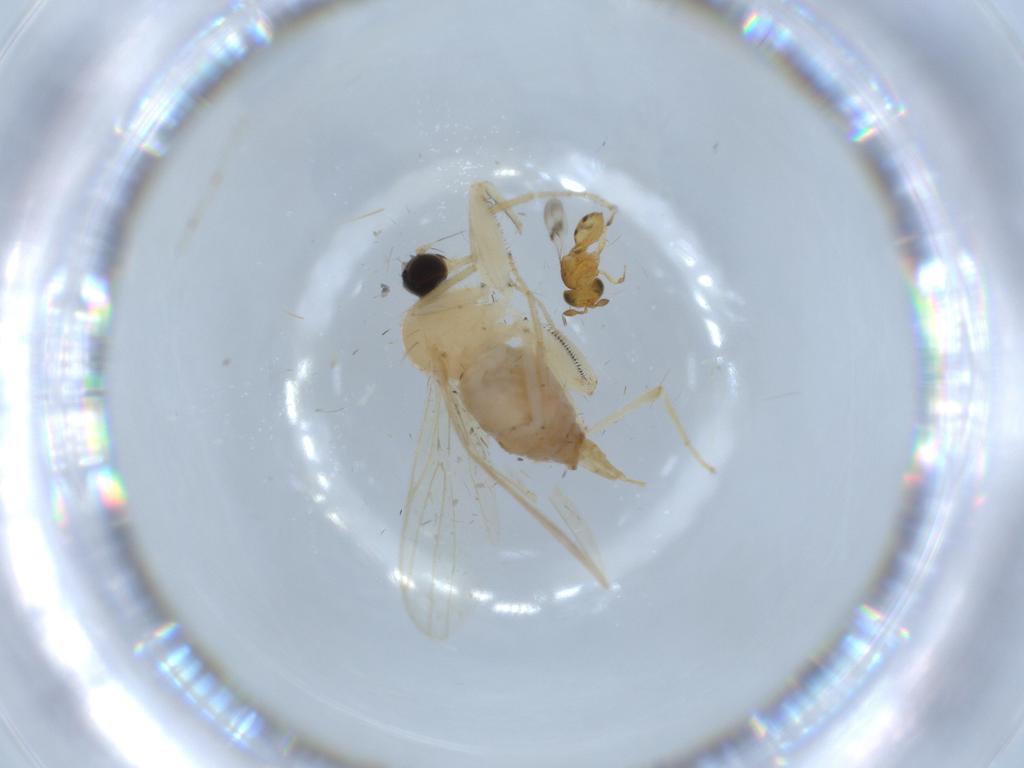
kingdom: Animalia
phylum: Arthropoda
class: Insecta
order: Diptera
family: Hybotidae
